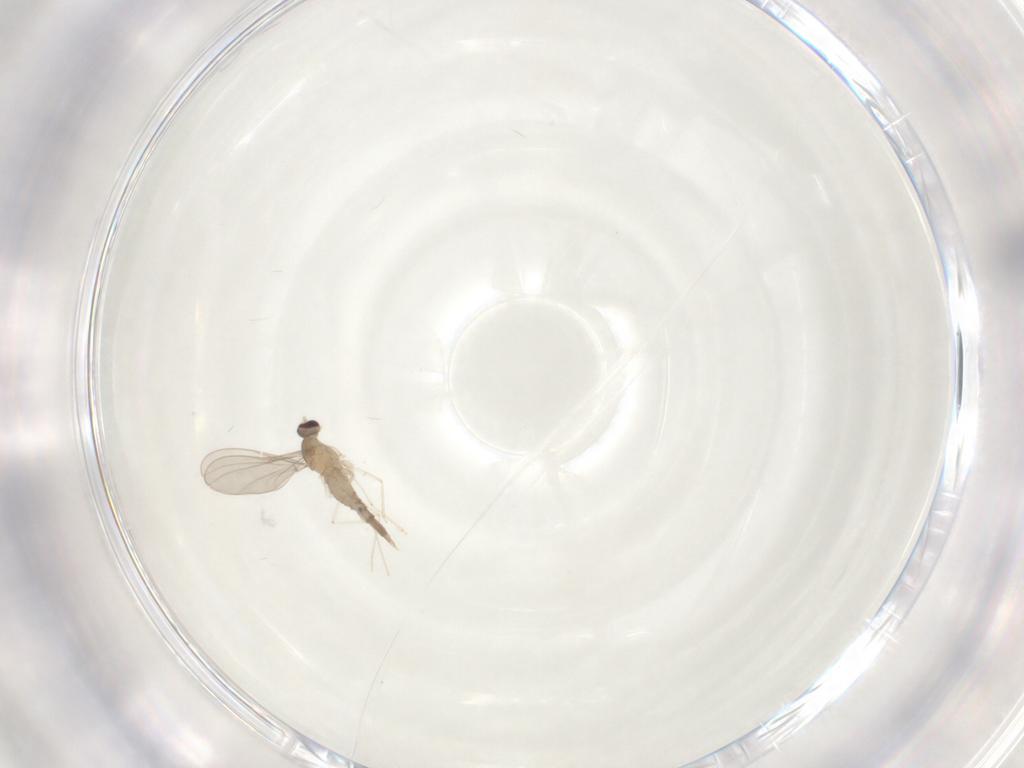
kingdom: Animalia
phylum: Arthropoda
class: Insecta
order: Diptera
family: Cecidomyiidae
